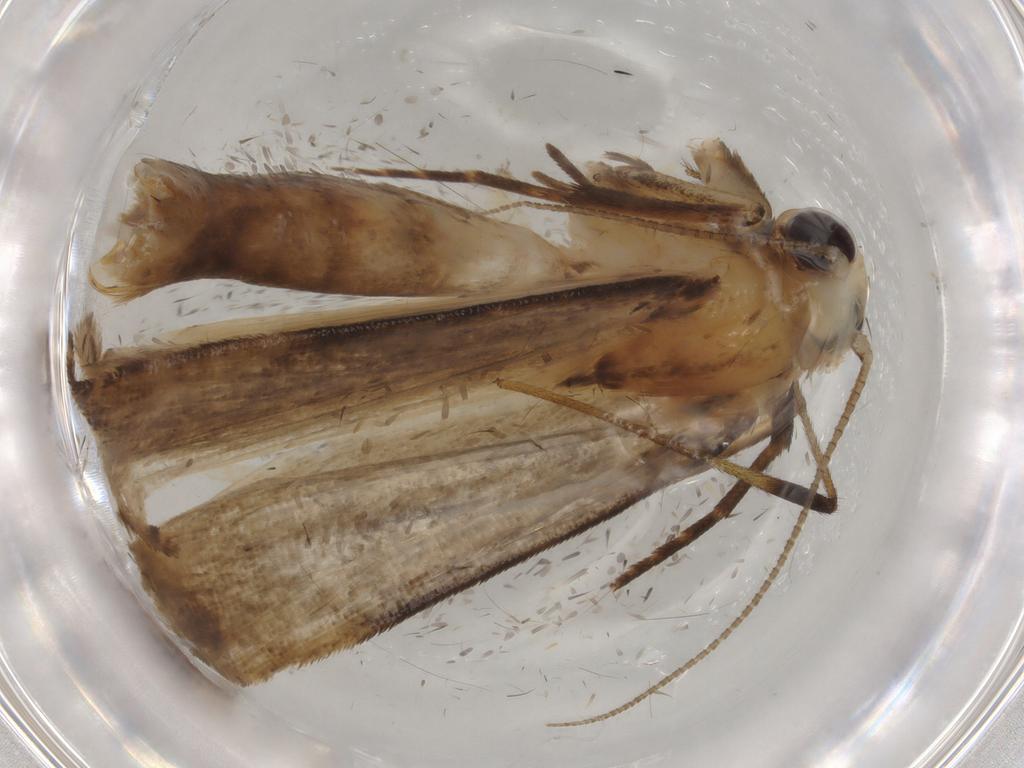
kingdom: Animalia
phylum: Arthropoda
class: Insecta
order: Lepidoptera
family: Noctuidae
